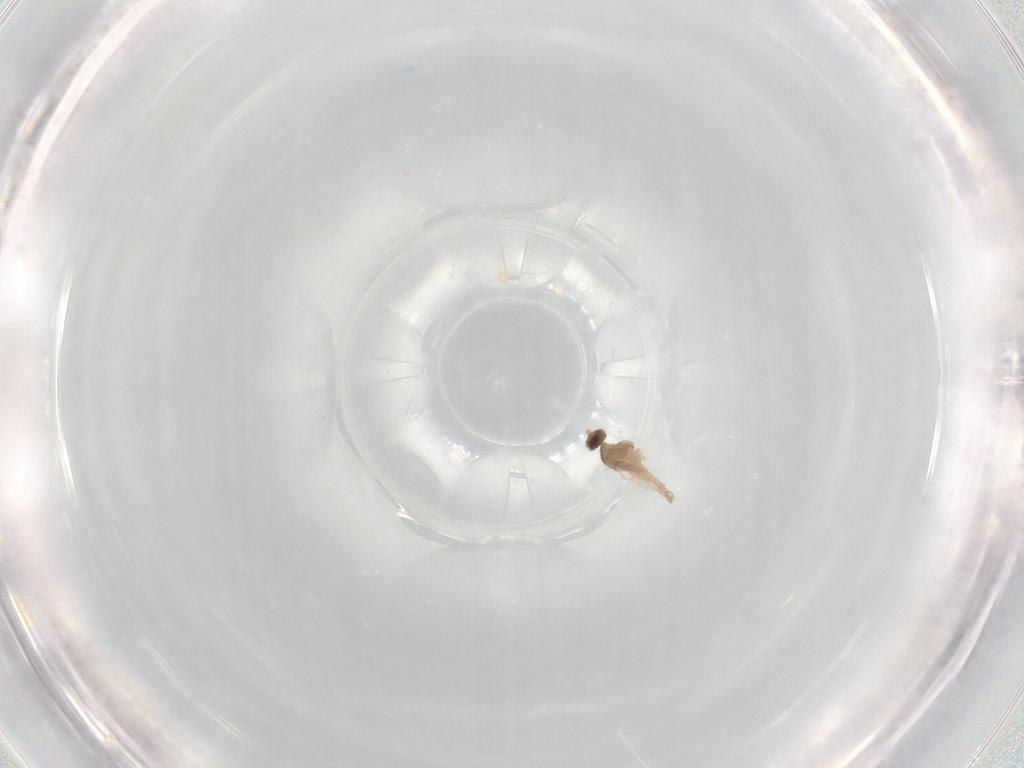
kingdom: Animalia
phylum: Arthropoda
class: Insecta
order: Diptera
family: Cecidomyiidae
